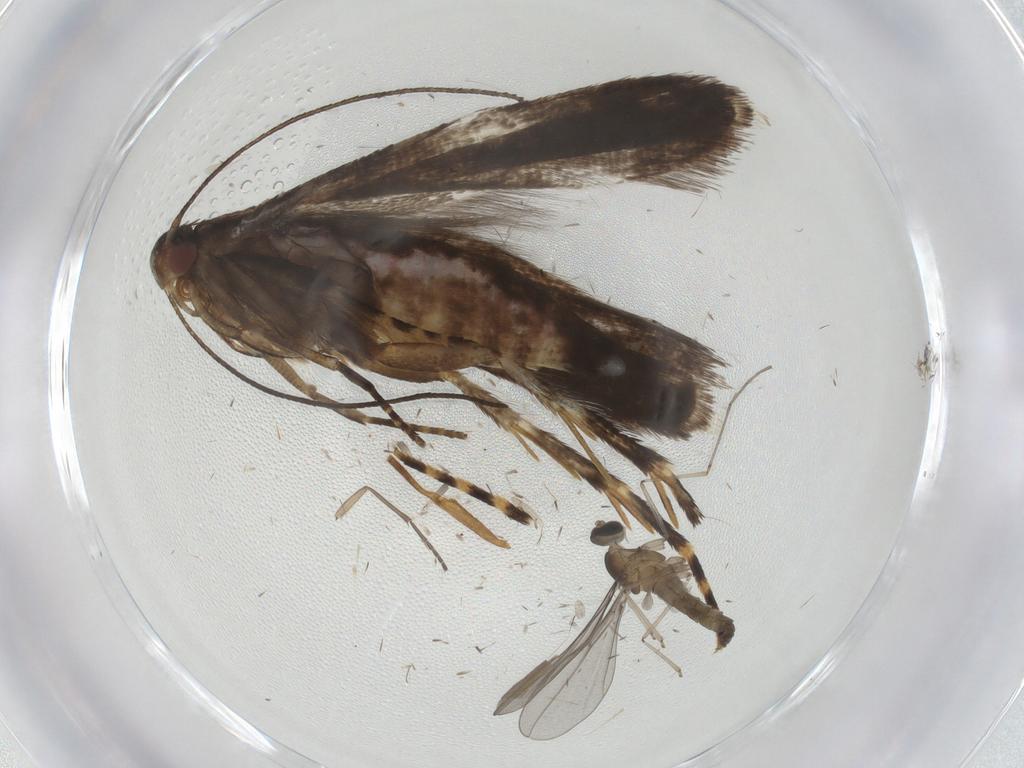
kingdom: Animalia
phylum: Arthropoda
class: Insecta
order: Lepidoptera
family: Gelechiidae
